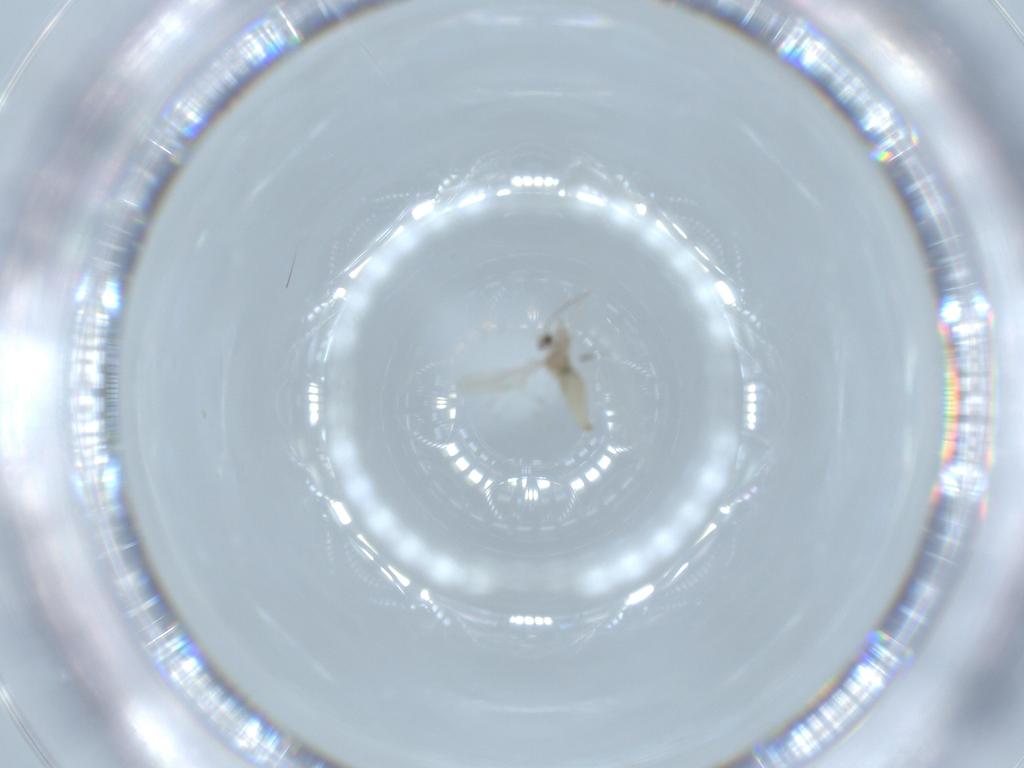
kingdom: Animalia
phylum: Arthropoda
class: Insecta
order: Diptera
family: Cecidomyiidae
